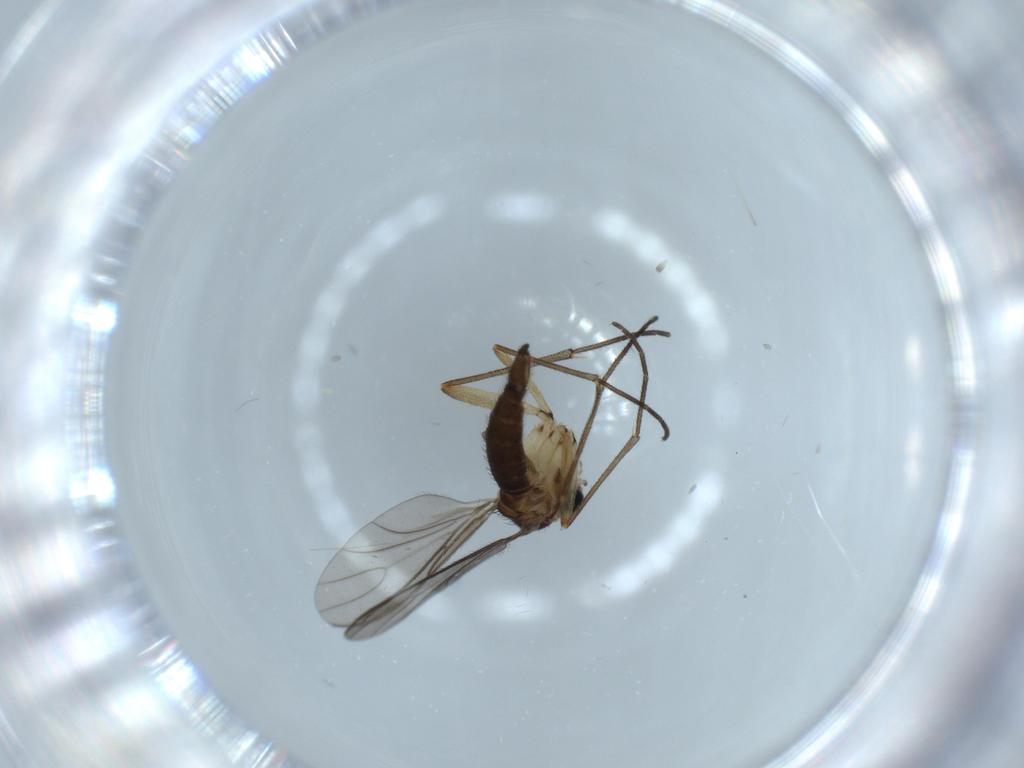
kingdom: Animalia
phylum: Arthropoda
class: Insecta
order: Diptera
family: Sciaridae
